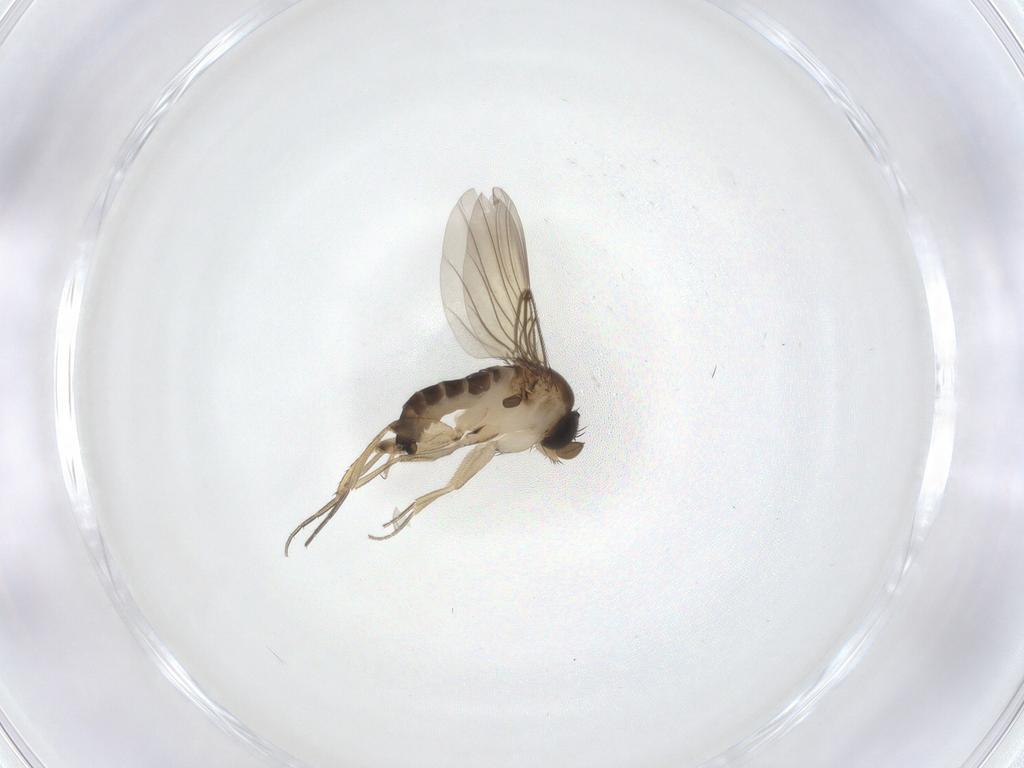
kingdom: Animalia
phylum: Arthropoda
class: Insecta
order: Diptera
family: Phoridae
